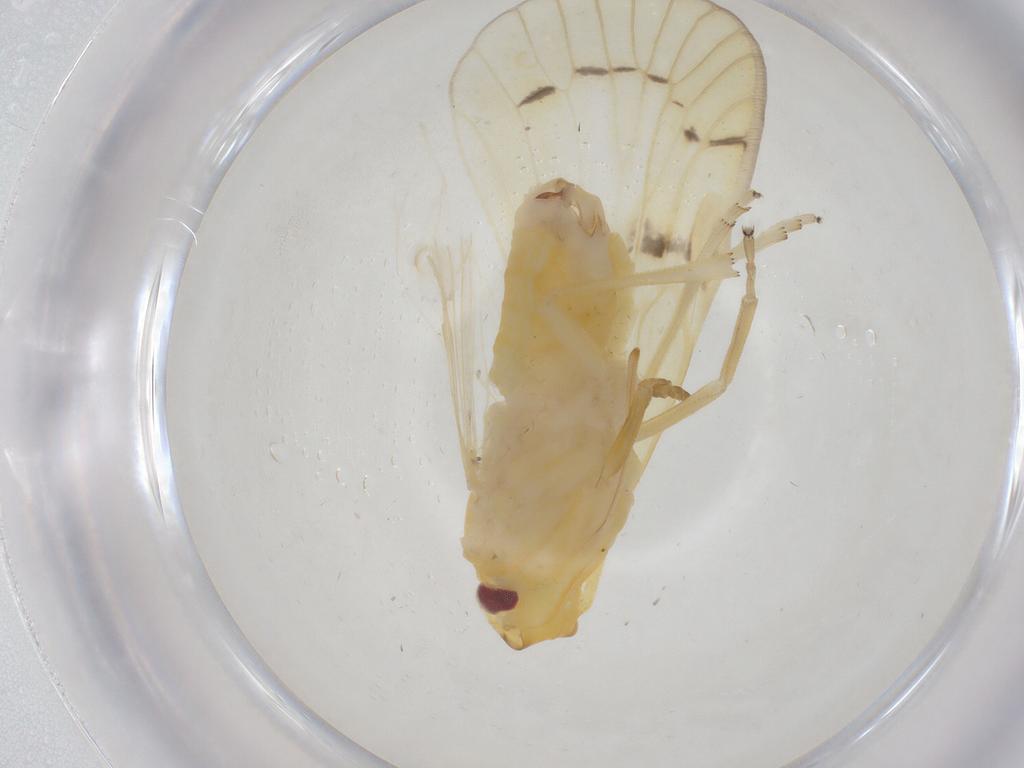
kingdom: Animalia
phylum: Arthropoda
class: Insecta
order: Hemiptera
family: Cixiidae
